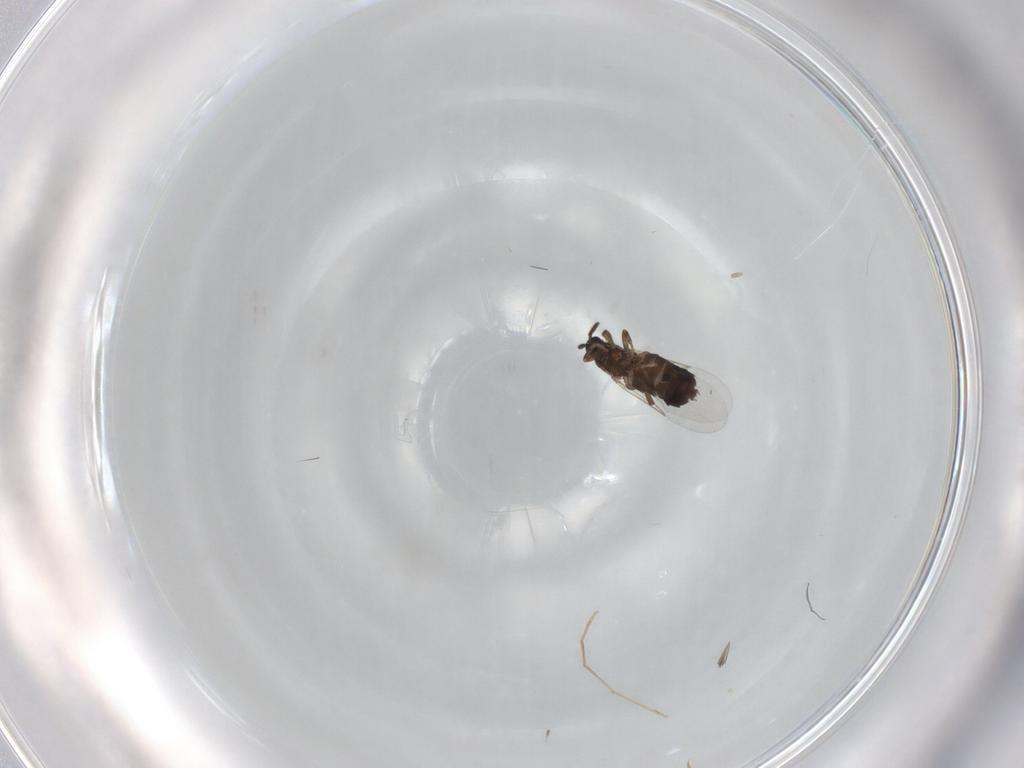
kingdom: Animalia
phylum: Arthropoda
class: Insecta
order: Diptera
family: Scatopsidae
